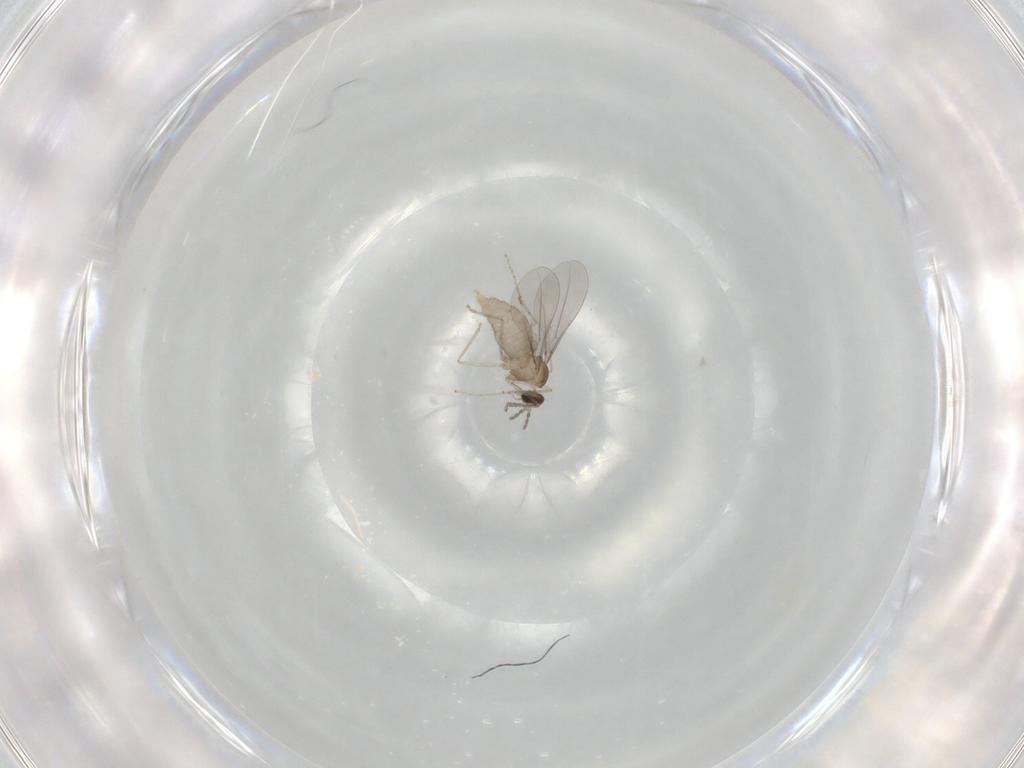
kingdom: Animalia
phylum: Arthropoda
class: Insecta
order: Diptera
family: Cecidomyiidae
